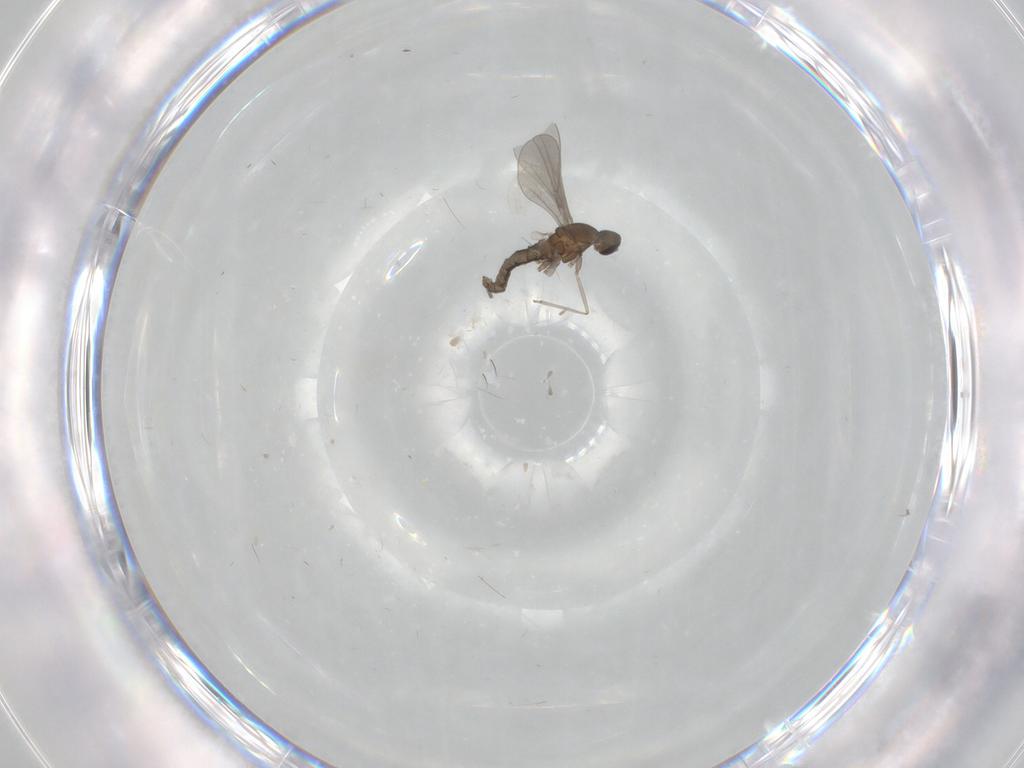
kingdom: Animalia
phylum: Arthropoda
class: Insecta
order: Diptera
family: Cecidomyiidae
